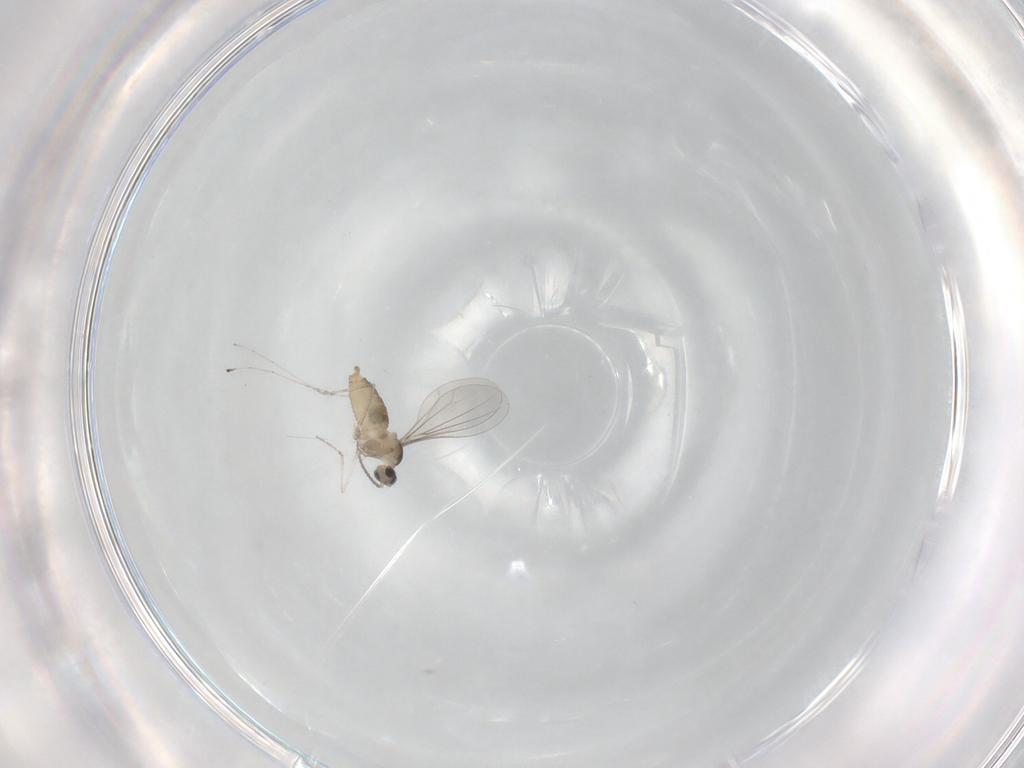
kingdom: Animalia
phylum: Arthropoda
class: Insecta
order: Diptera
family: Cecidomyiidae
